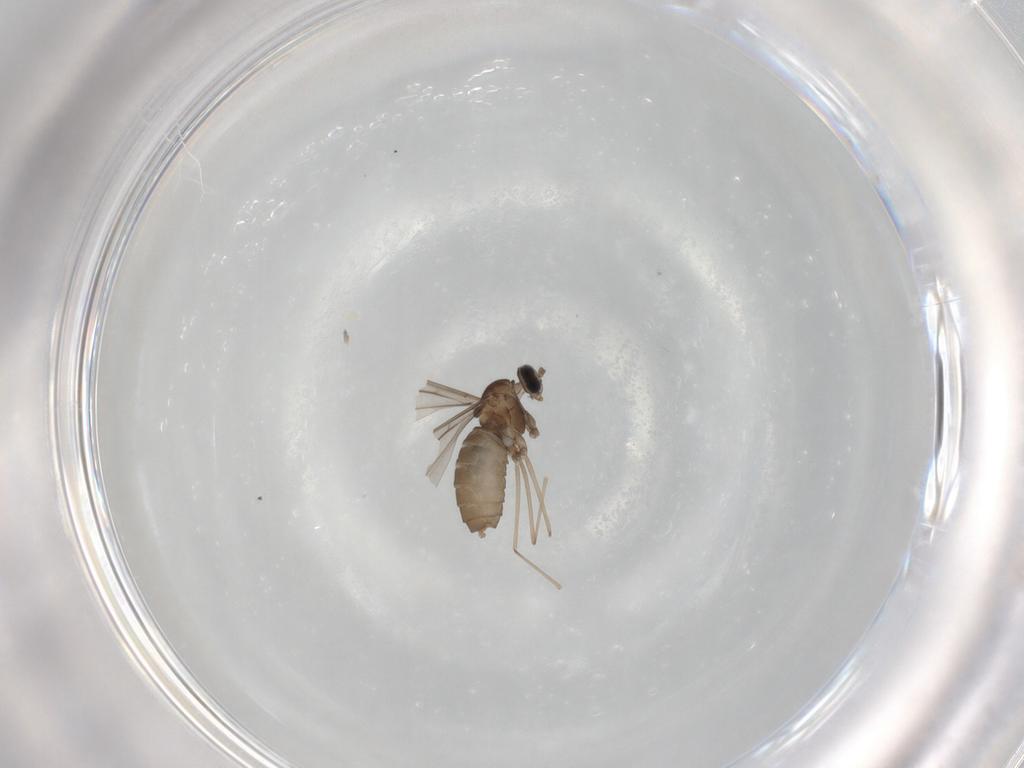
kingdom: Animalia
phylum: Arthropoda
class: Insecta
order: Diptera
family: Cecidomyiidae
